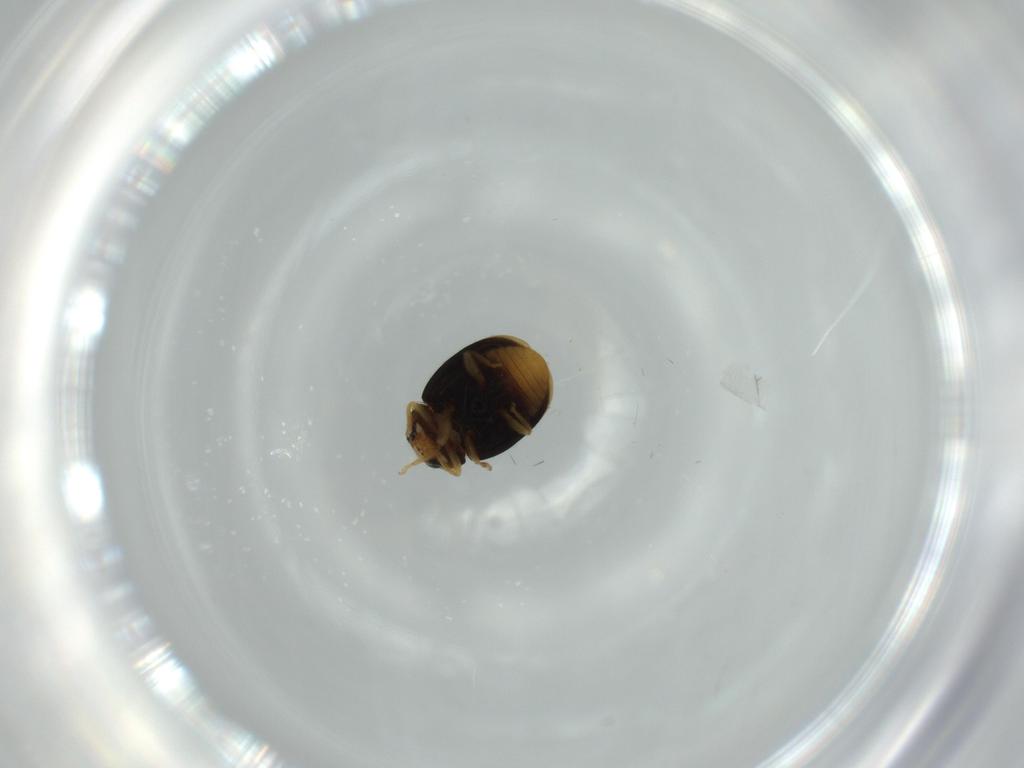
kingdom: Animalia
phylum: Arthropoda
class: Insecta
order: Coleoptera
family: Coccinellidae
